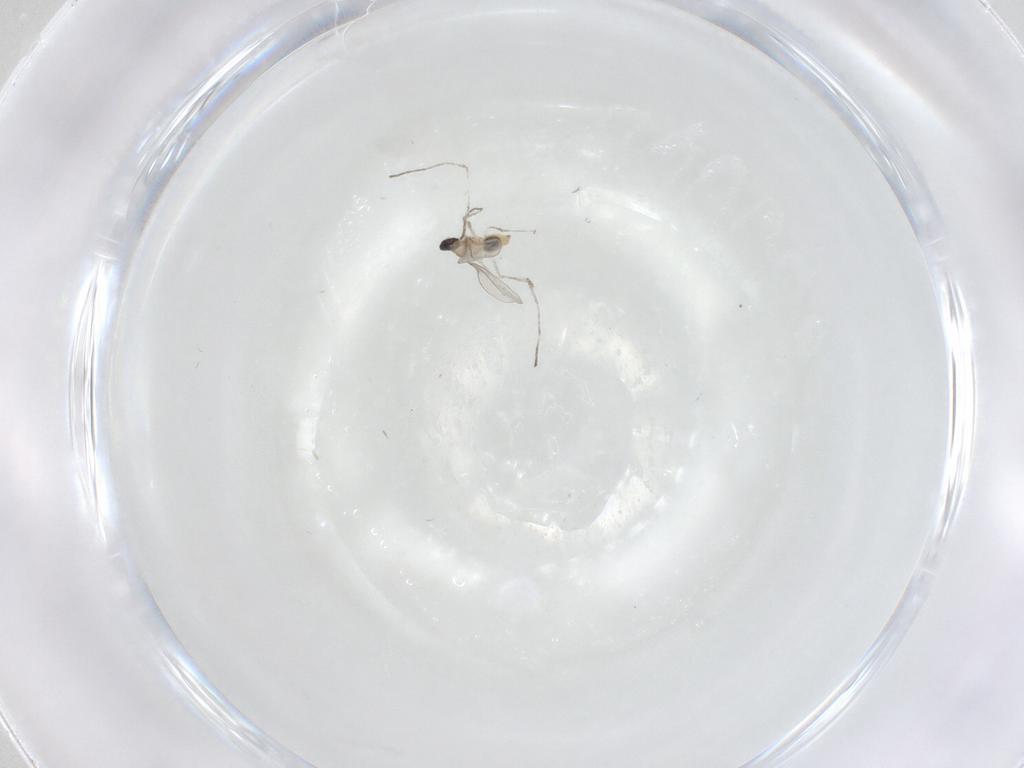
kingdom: Animalia
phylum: Arthropoda
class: Insecta
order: Diptera
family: Cecidomyiidae
